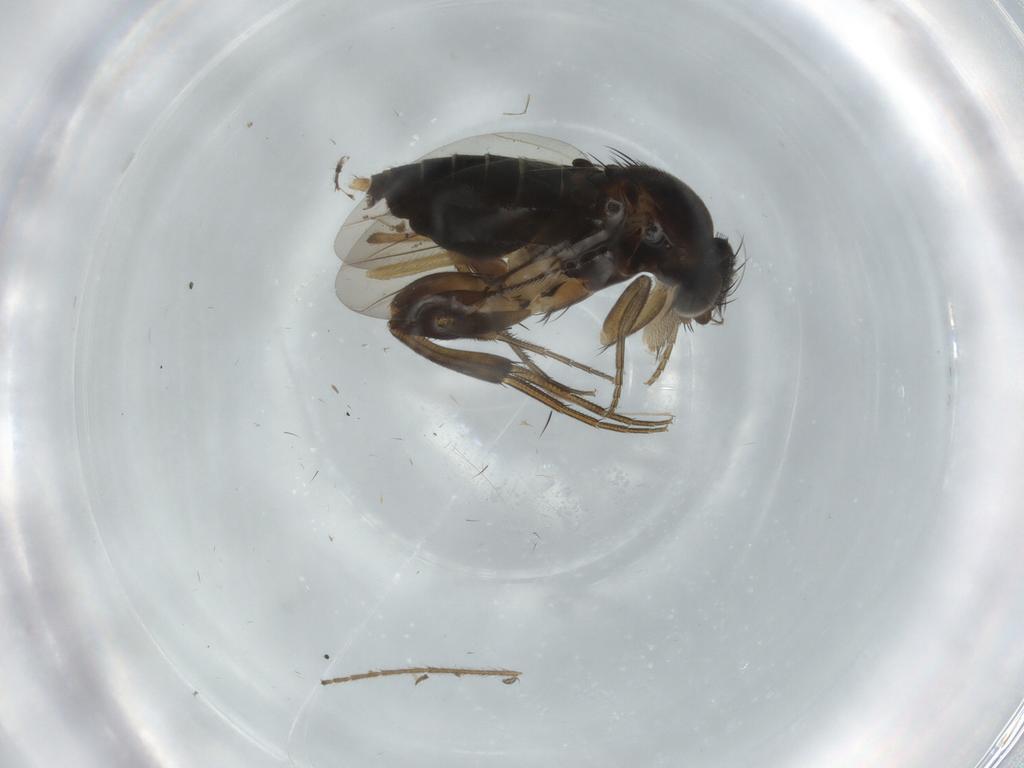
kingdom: Animalia
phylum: Arthropoda
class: Insecta
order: Diptera
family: Phoridae
